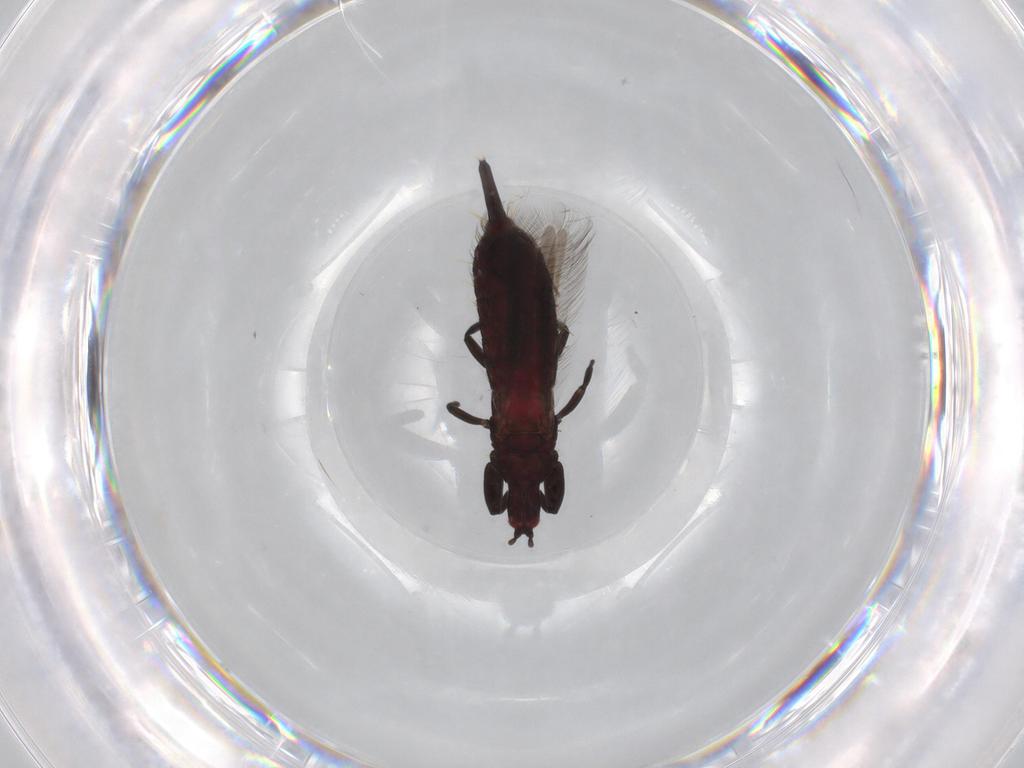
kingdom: Animalia
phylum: Arthropoda
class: Insecta
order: Thysanoptera
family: Phlaeothripidae
